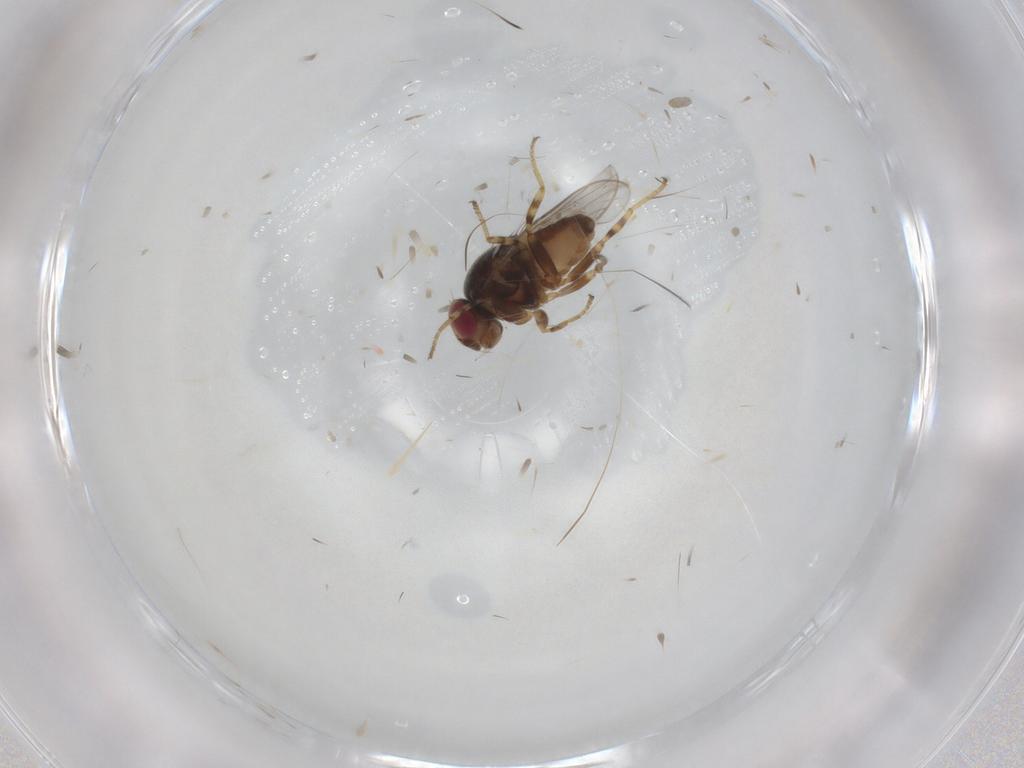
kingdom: Animalia
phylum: Arthropoda
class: Insecta
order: Diptera
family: Chloropidae
